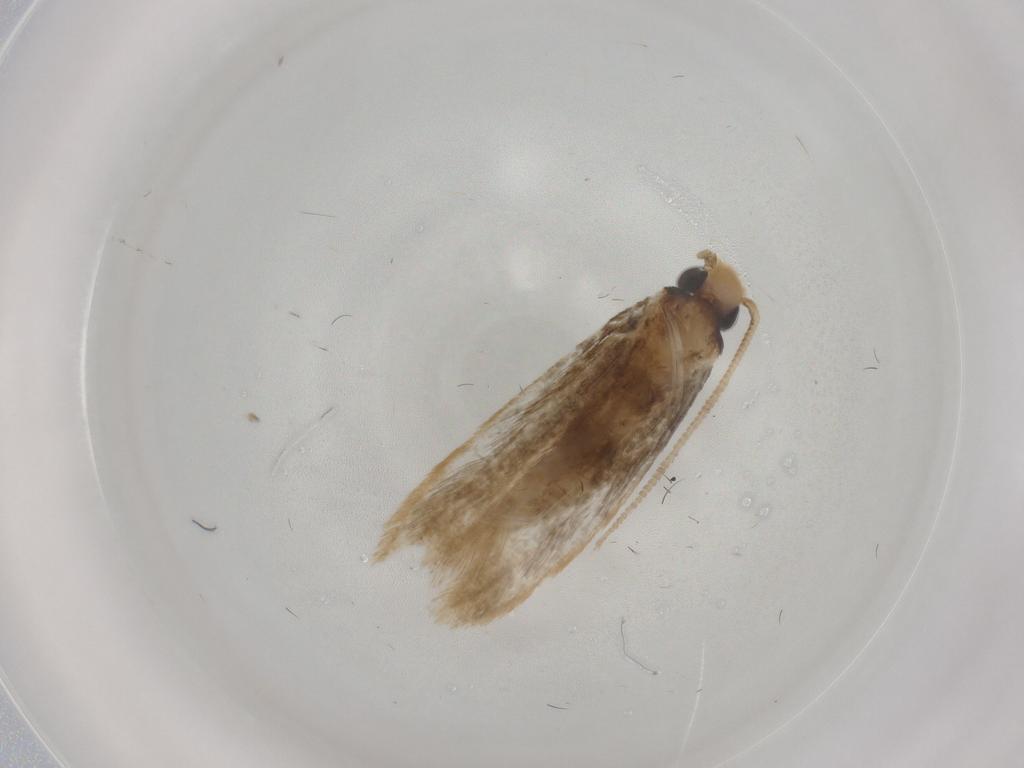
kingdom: Animalia
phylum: Arthropoda
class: Insecta
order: Lepidoptera
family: Cosmopterigidae
